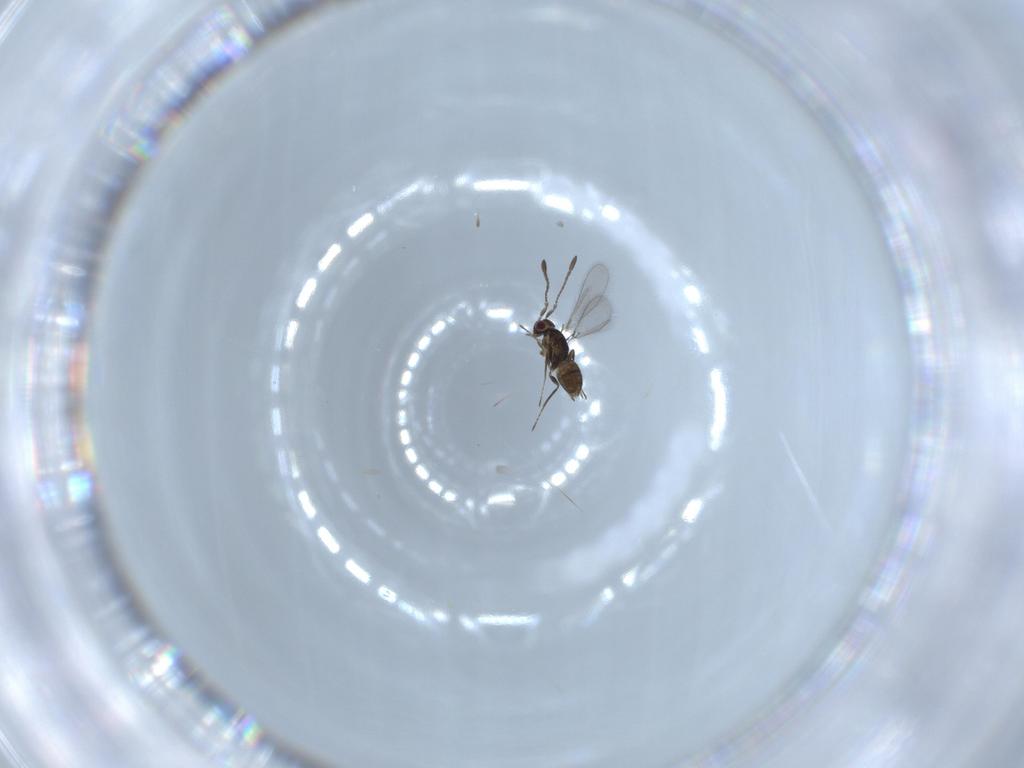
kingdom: Animalia
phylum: Arthropoda
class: Insecta
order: Hymenoptera
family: Mymaridae
